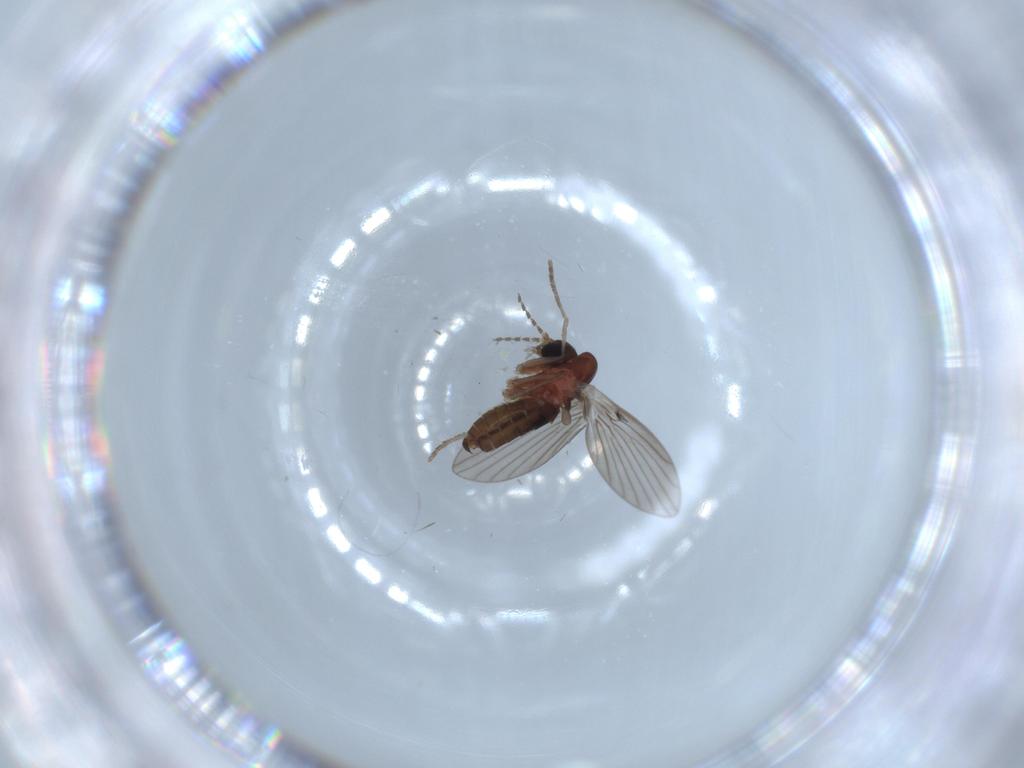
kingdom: Animalia
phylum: Arthropoda
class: Insecta
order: Diptera
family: Psychodidae
